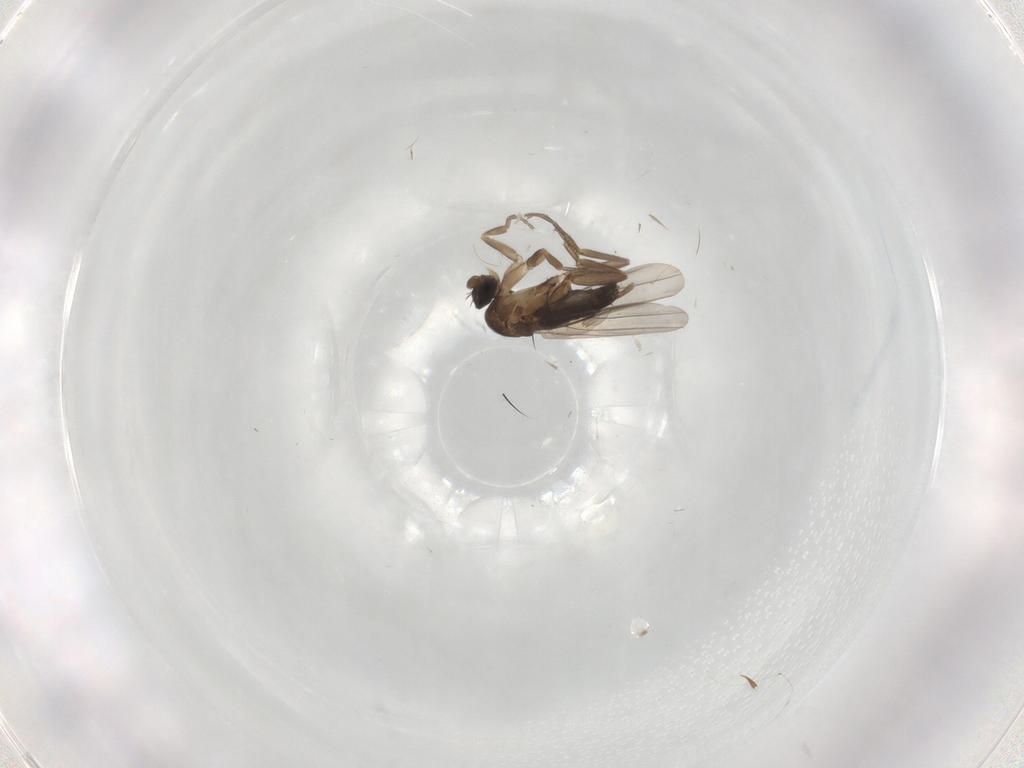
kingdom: Animalia
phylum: Arthropoda
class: Insecta
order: Diptera
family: Phoridae
